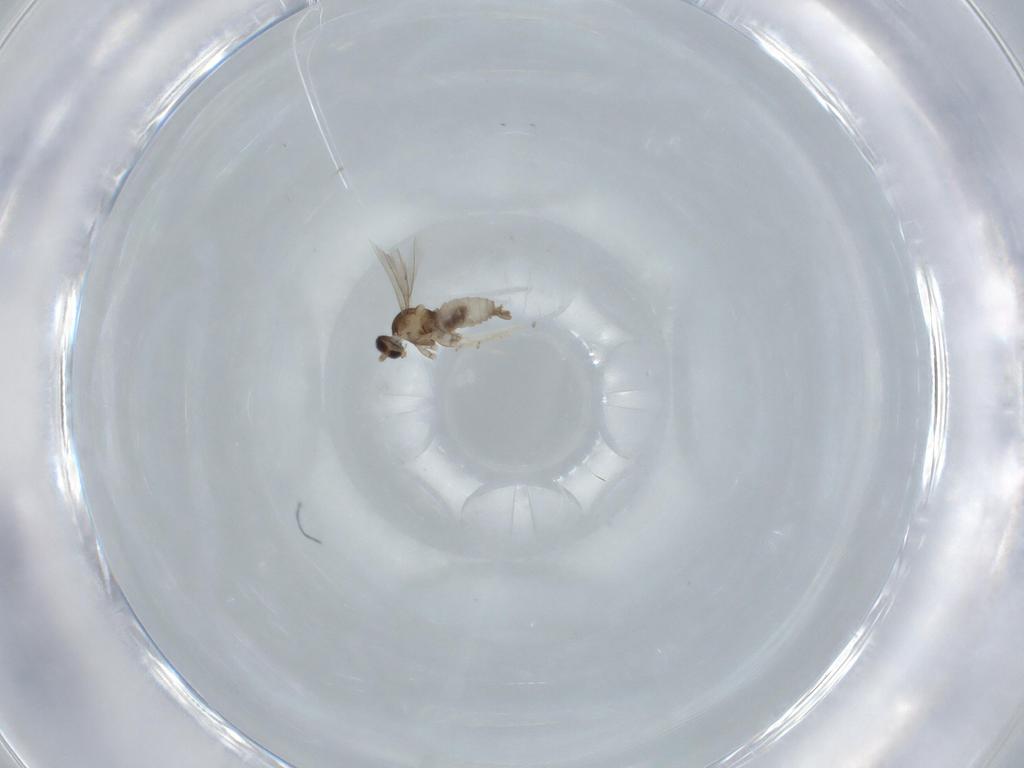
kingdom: Animalia
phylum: Arthropoda
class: Insecta
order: Diptera
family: Cecidomyiidae
